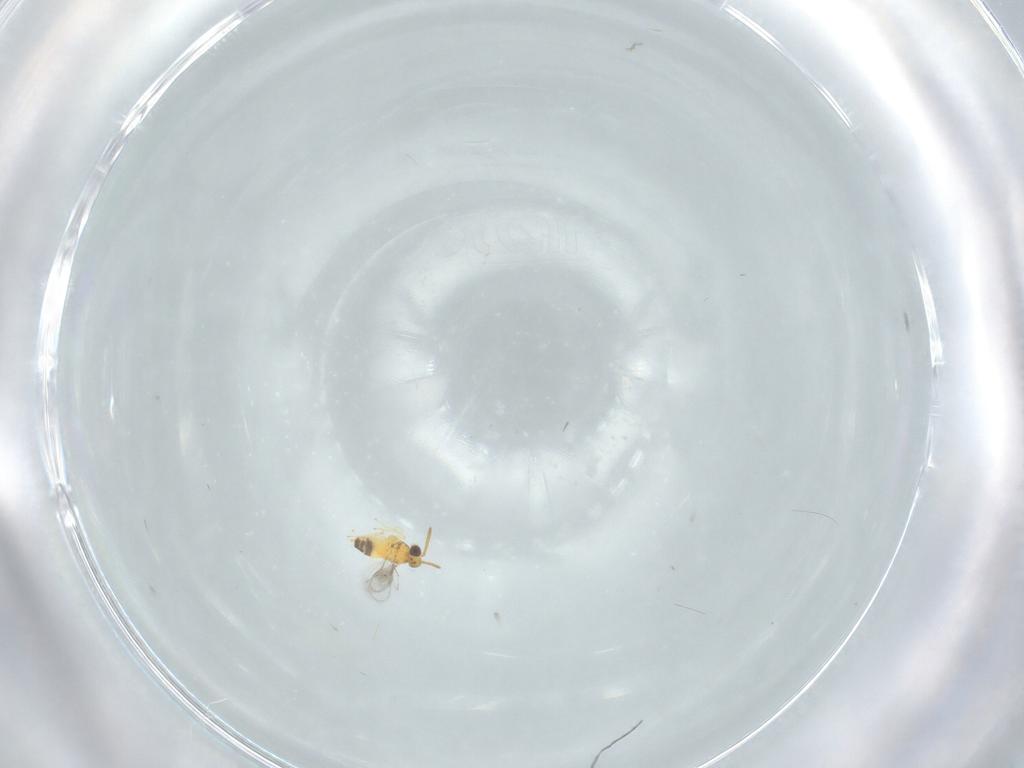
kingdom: Animalia
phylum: Arthropoda
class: Insecta
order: Hymenoptera
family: Aphelinidae
